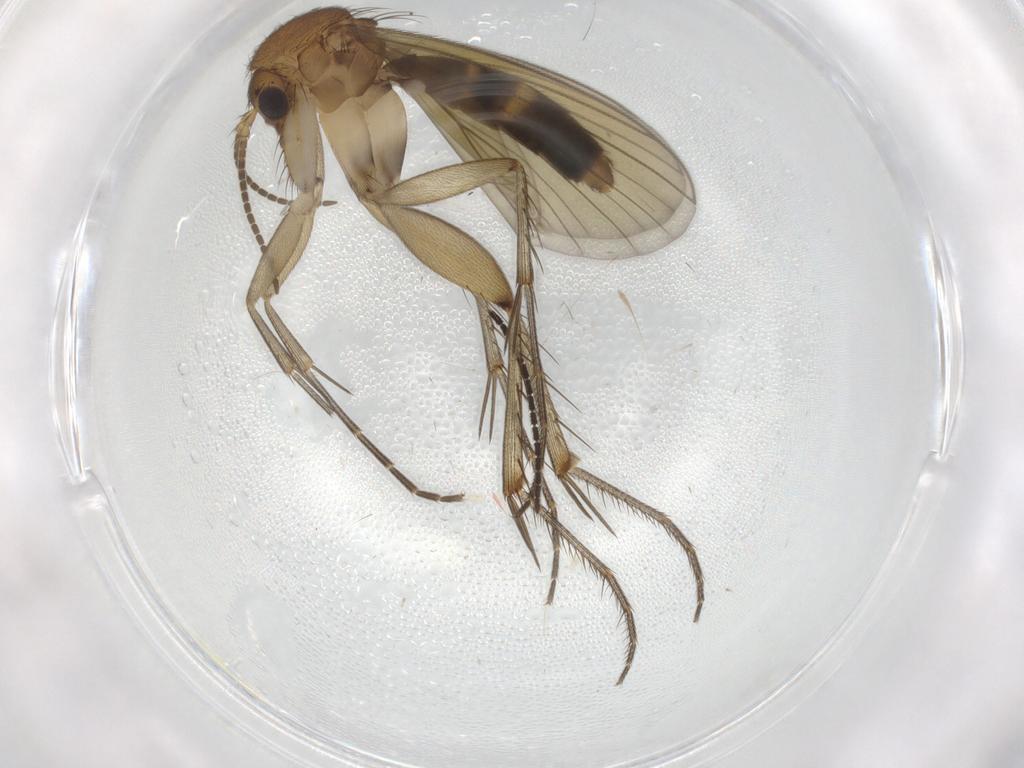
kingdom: Animalia
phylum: Arthropoda
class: Insecta
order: Diptera
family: Mycetophilidae
